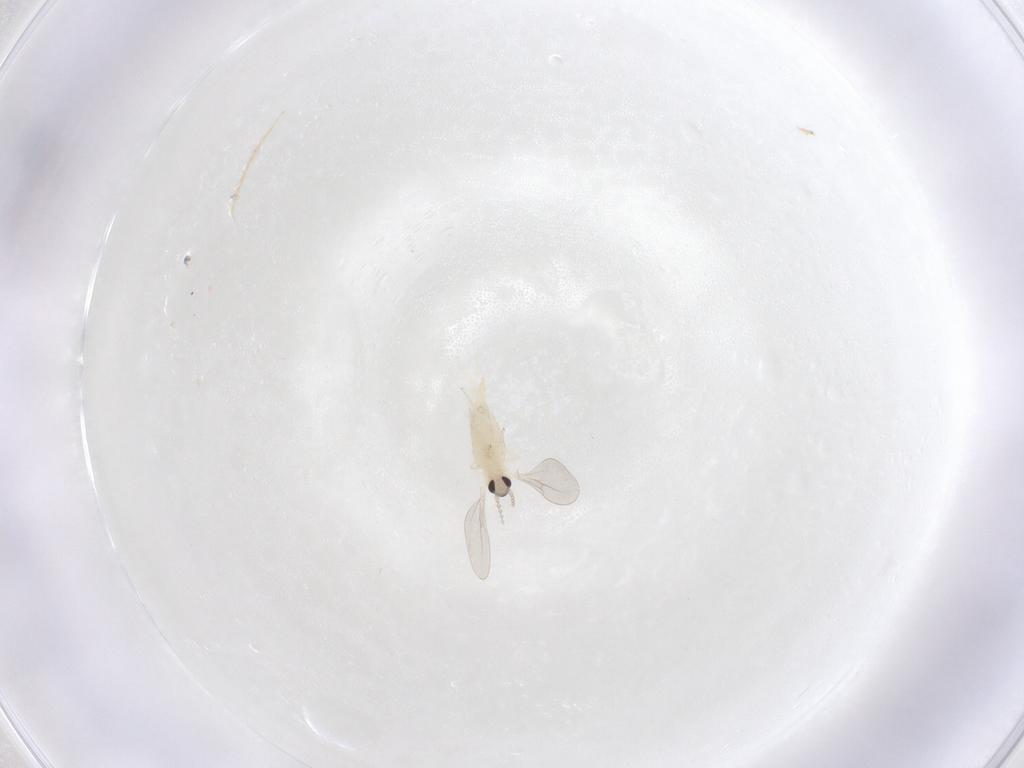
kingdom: Animalia
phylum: Arthropoda
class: Insecta
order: Diptera
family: Cecidomyiidae
